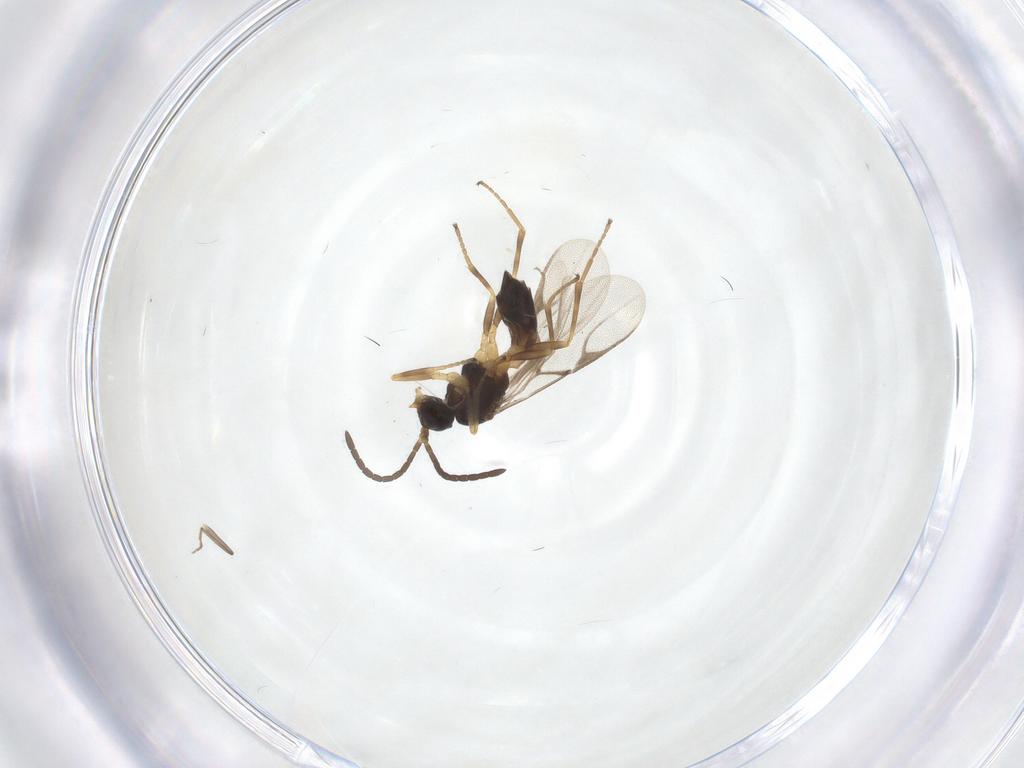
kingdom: Animalia
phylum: Arthropoda
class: Insecta
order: Hymenoptera
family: Braconidae
